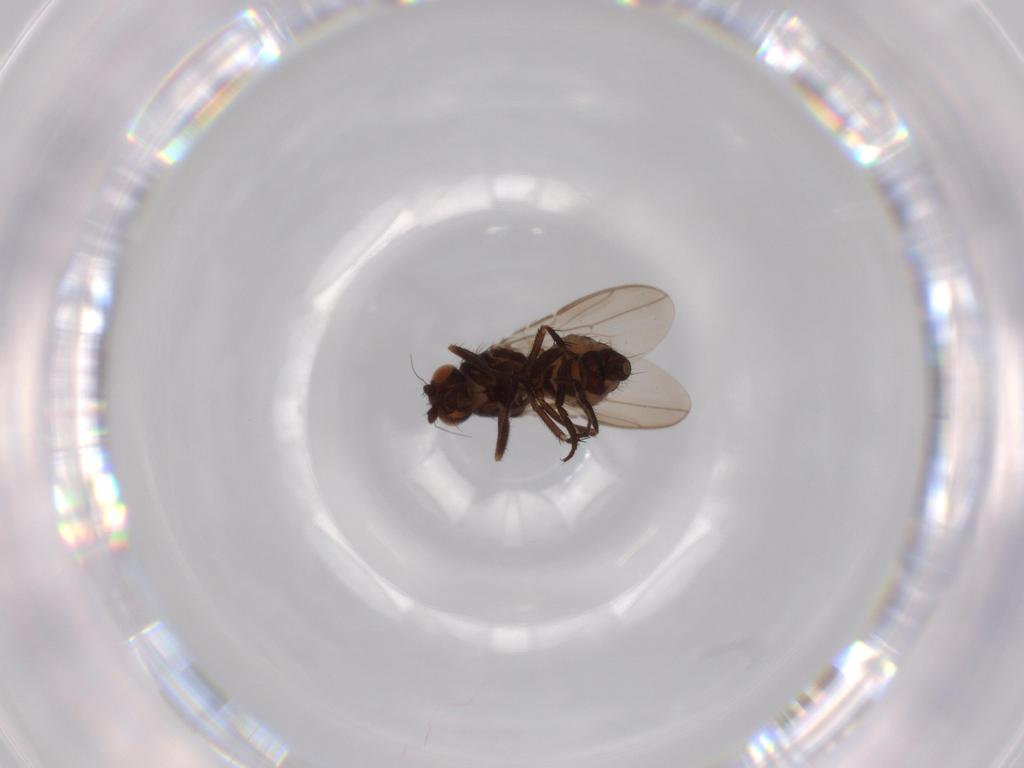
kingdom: Animalia
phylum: Arthropoda
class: Insecta
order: Diptera
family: Sphaeroceridae
